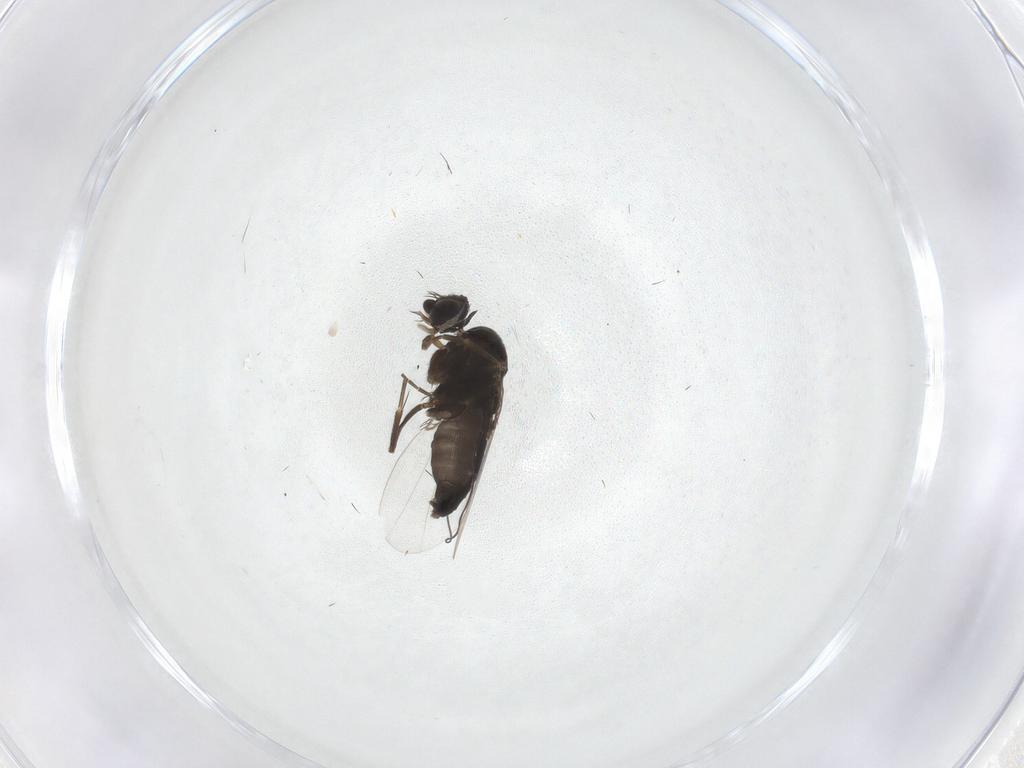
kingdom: Animalia
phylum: Arthropoda
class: Insecta
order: Diptera
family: Phoridae
